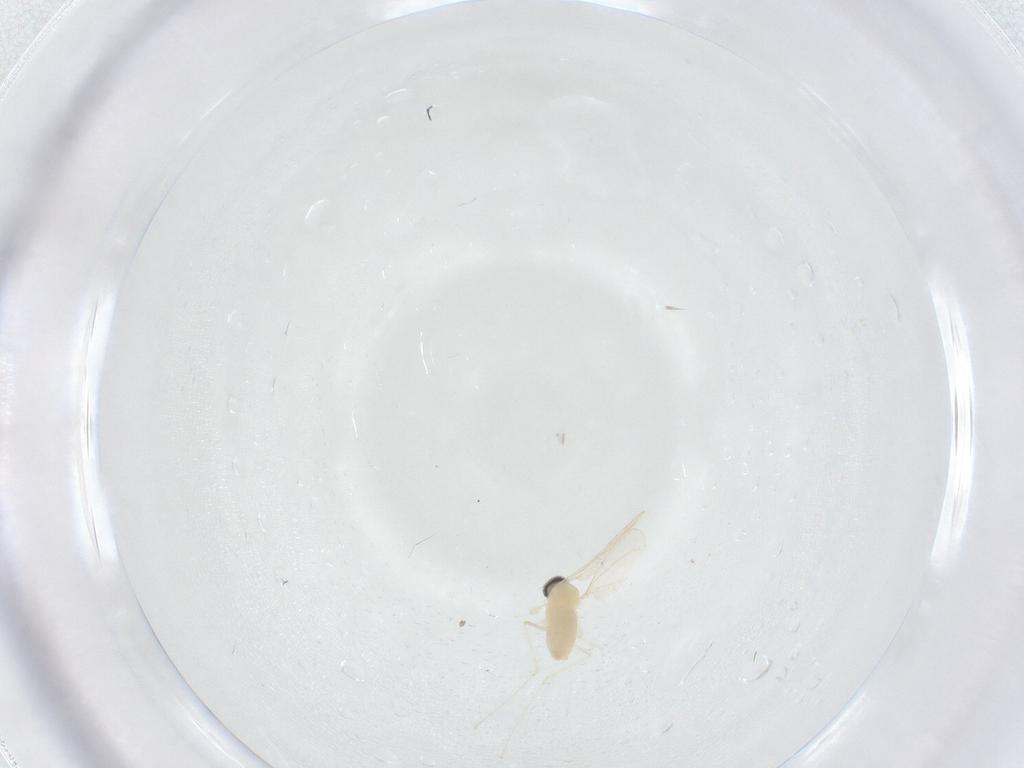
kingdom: Animalia
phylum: Arthropoda
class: Insecta
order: Diptera
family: Cecidomyiidae
